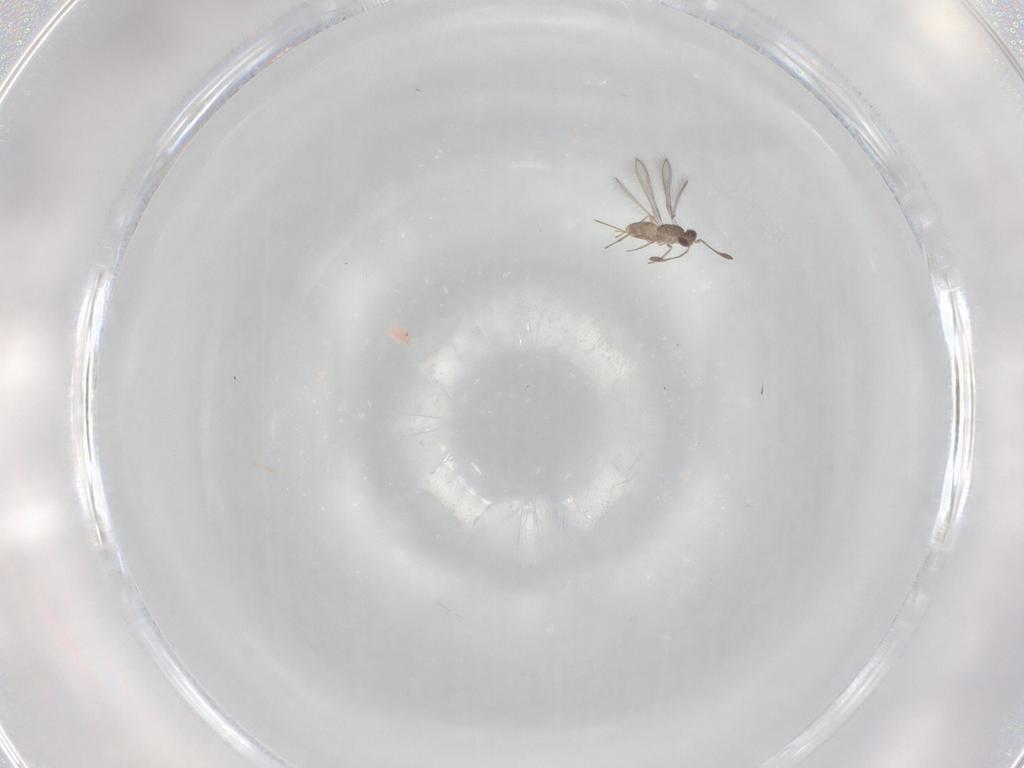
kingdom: Animalia
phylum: Arthropoda
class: Insecta
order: Hymenoptera
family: Mymaridae
